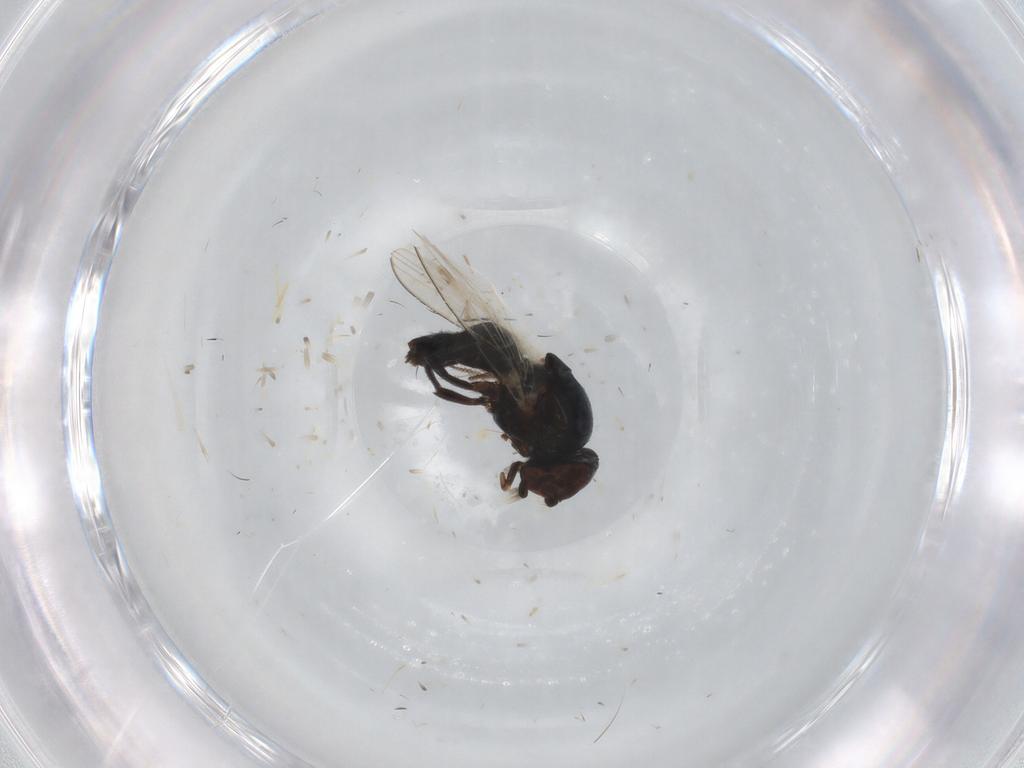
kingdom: Animalia
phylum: Arthropoda
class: Insecta
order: Diptera
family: Milichiidae
